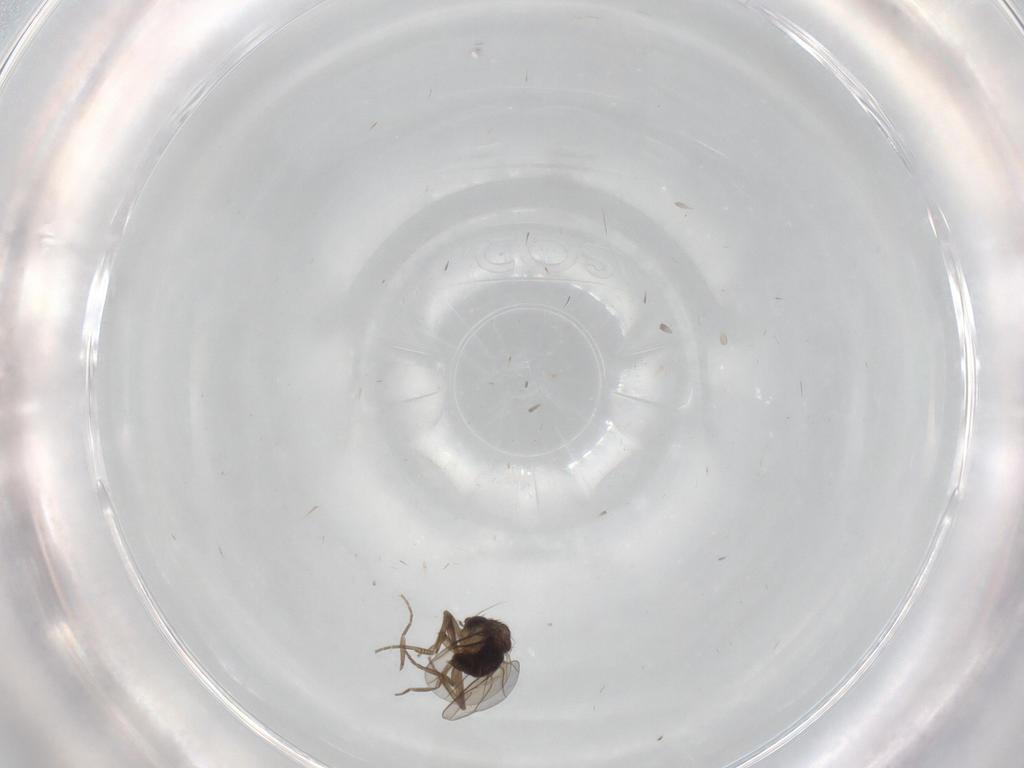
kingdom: Animalia
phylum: Arthropoda
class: Insecta
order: Diptera
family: Phoridae
